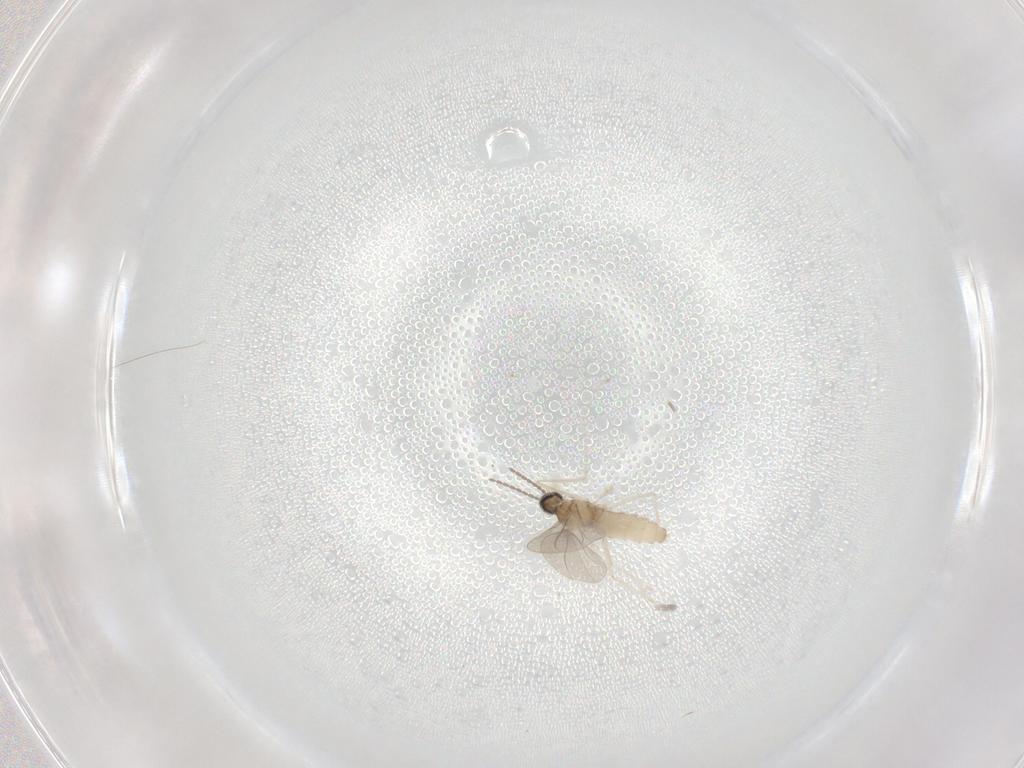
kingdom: Animalia
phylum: Arthropoda
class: Insecta
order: Diptera
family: Cecidomyiidae
